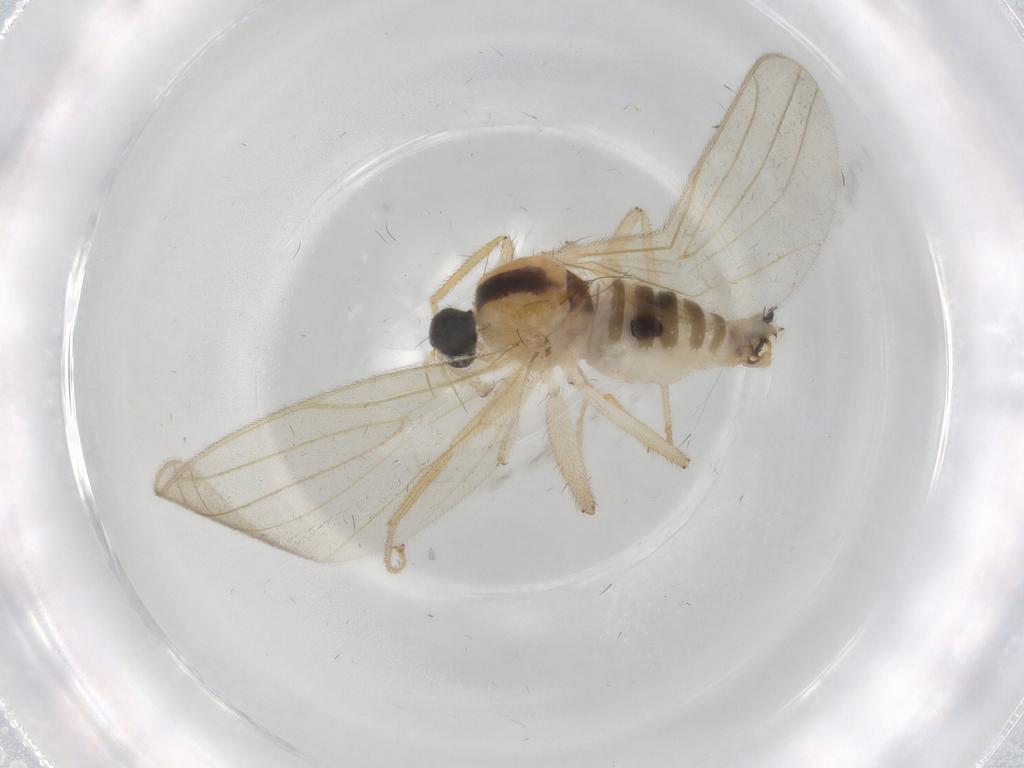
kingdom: Animalia
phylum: Arthropoda
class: Insecta
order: Diptera
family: Hybotidae
